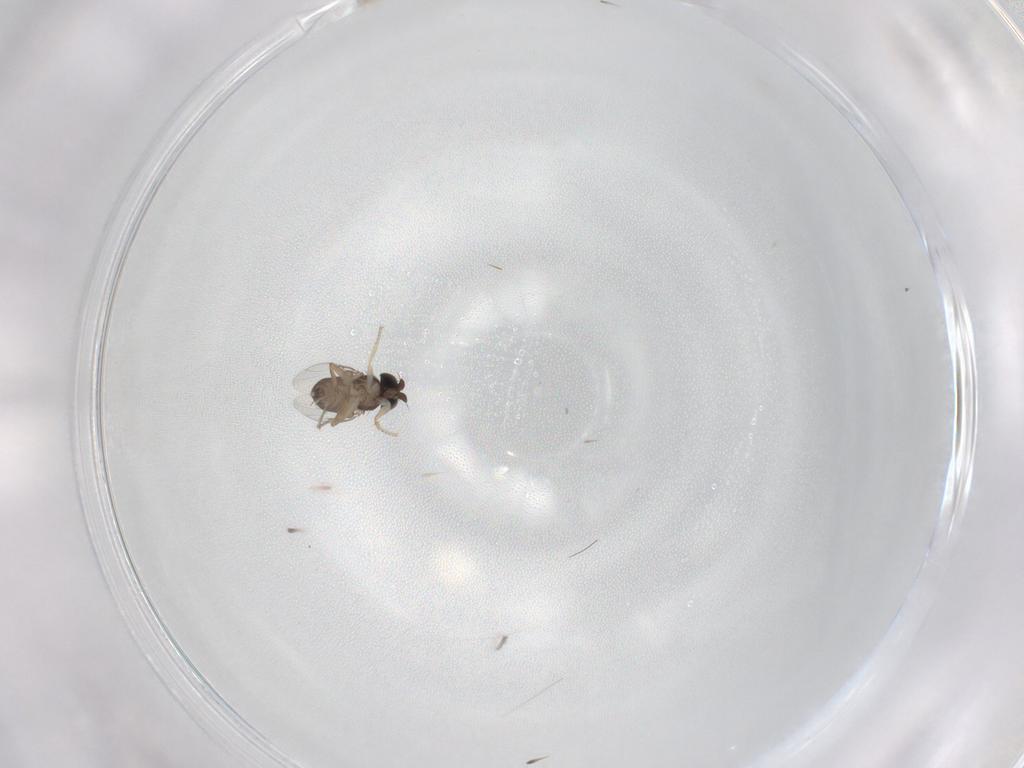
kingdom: Animalia
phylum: Arthropoda
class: Insecta
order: Diptera
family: Phoridae
